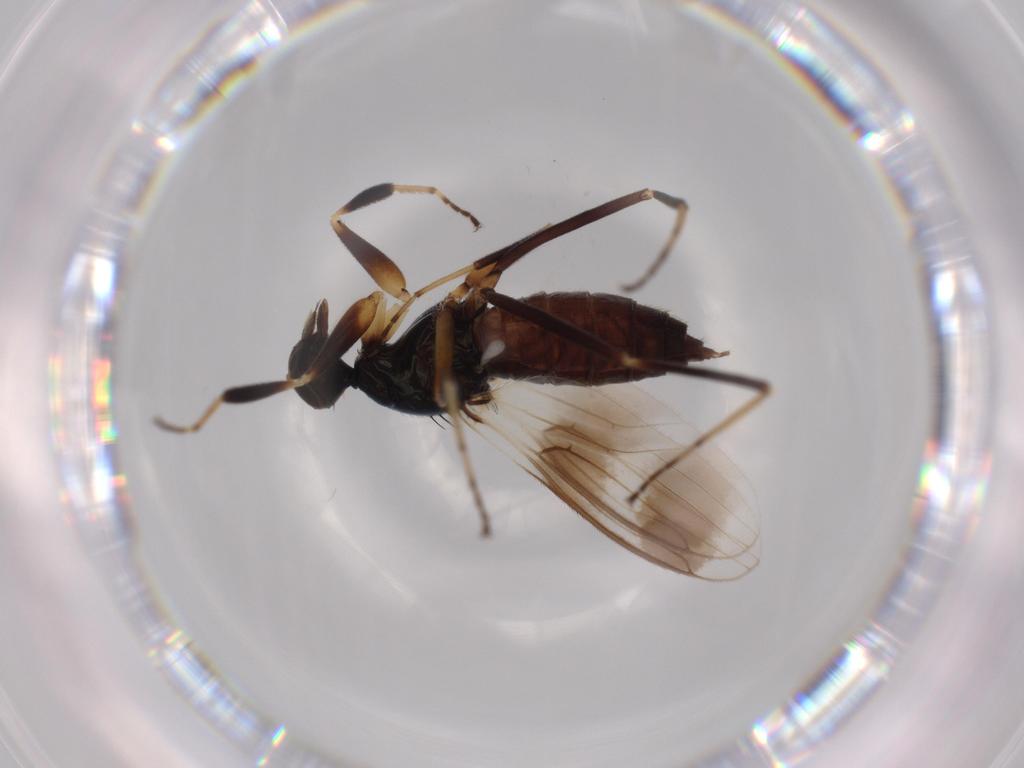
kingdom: Animalia
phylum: Arthropoda
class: Insecta
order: Diptera
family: Hybotidae
